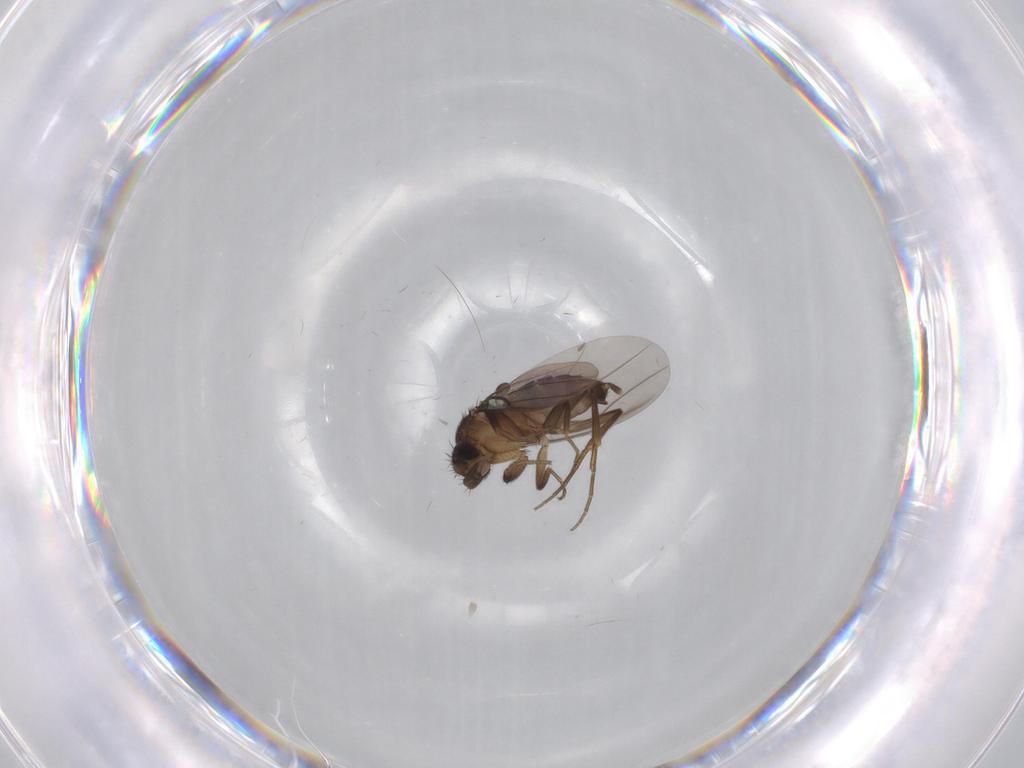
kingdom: Animalia
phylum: Arthropoda
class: Insecta
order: Diptera
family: Phoridae
